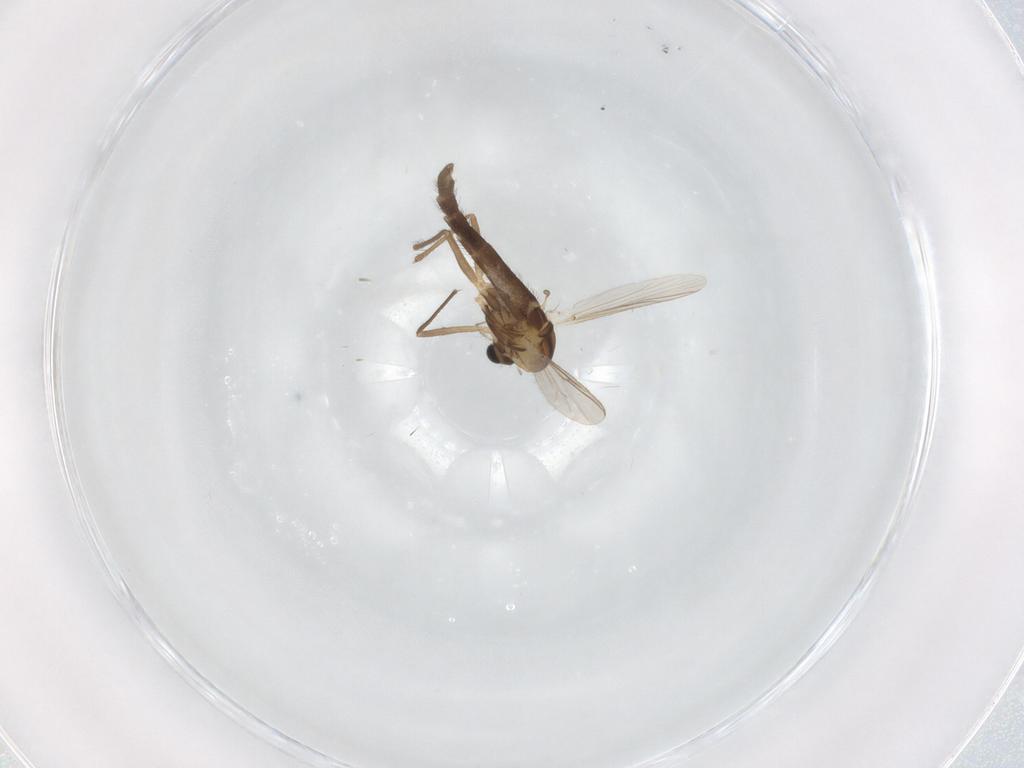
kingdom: Animalia
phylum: Arthropoda
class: Insecta
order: Diptera
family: Chironomidae
